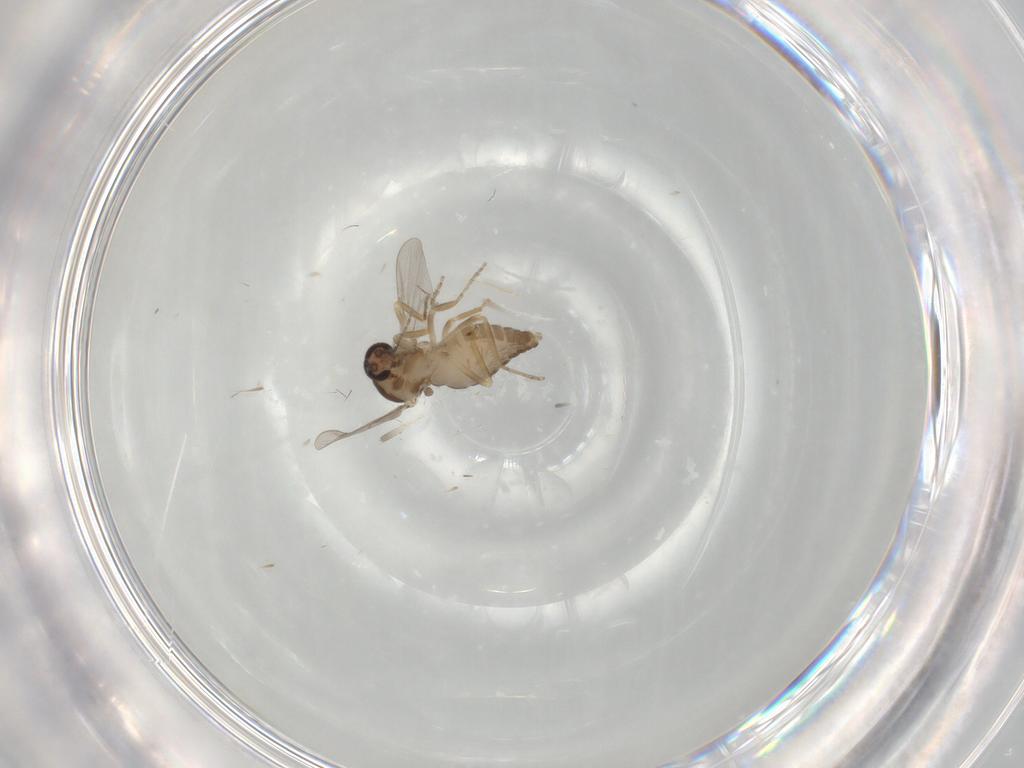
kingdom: Animalia
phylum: Arthropoda
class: Insecta
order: Diptera
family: Ceratopogonidae
